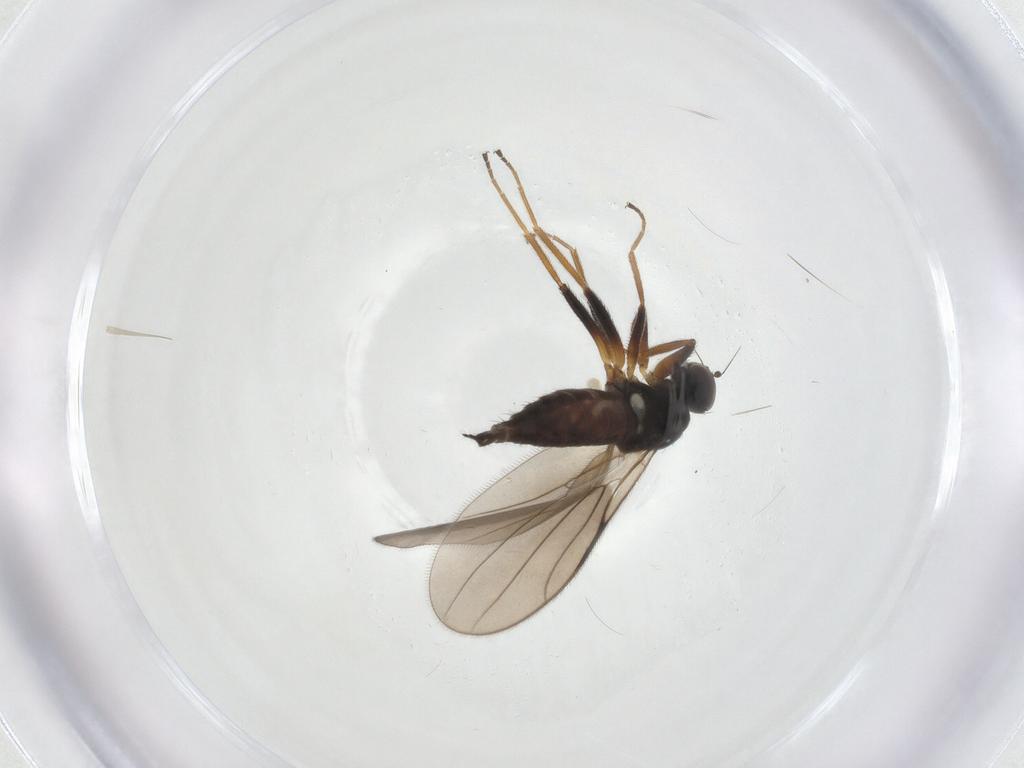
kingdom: Animalia
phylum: Arthropoda
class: Insecta
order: Diptera
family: Hybotidae
